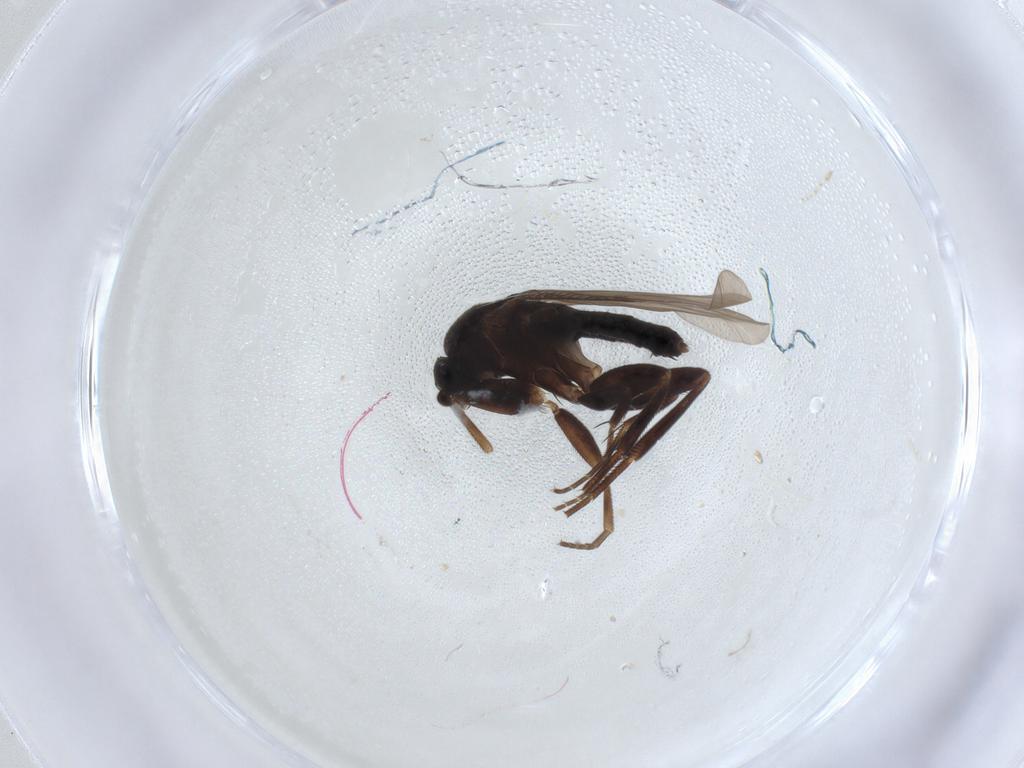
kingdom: Animalia
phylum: Arthropoda
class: Insecta
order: Diptera
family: Phoridae
